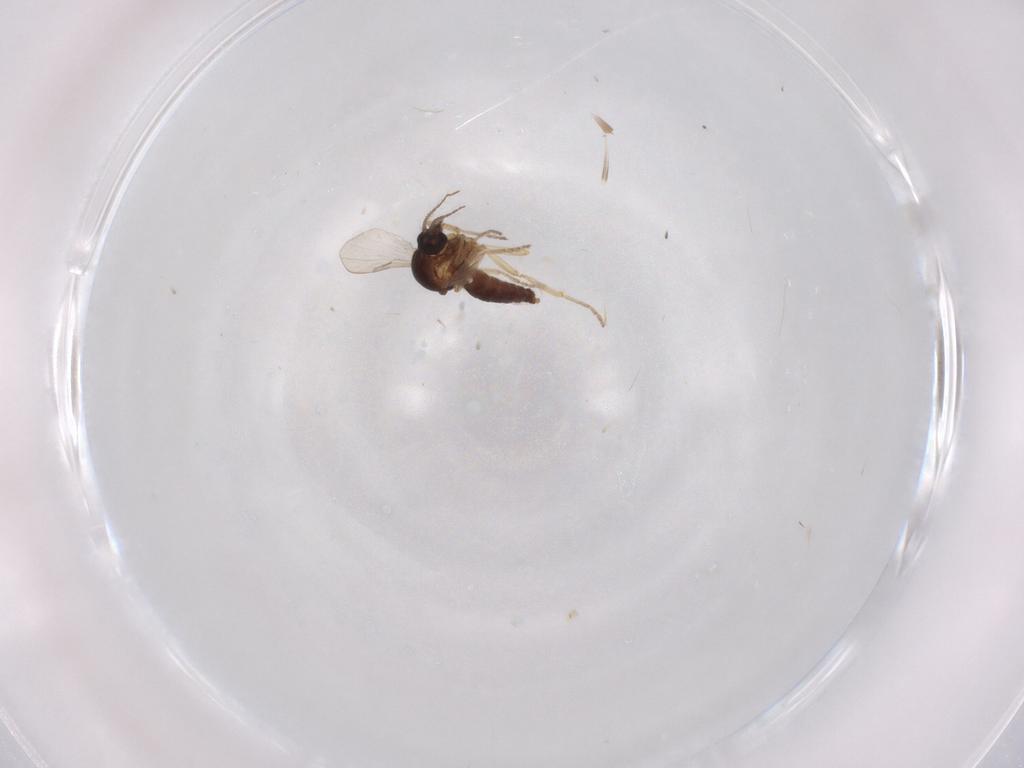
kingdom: Animalia
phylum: Arthropoda
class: Insecta
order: Diptera
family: Ceratopogonidae
